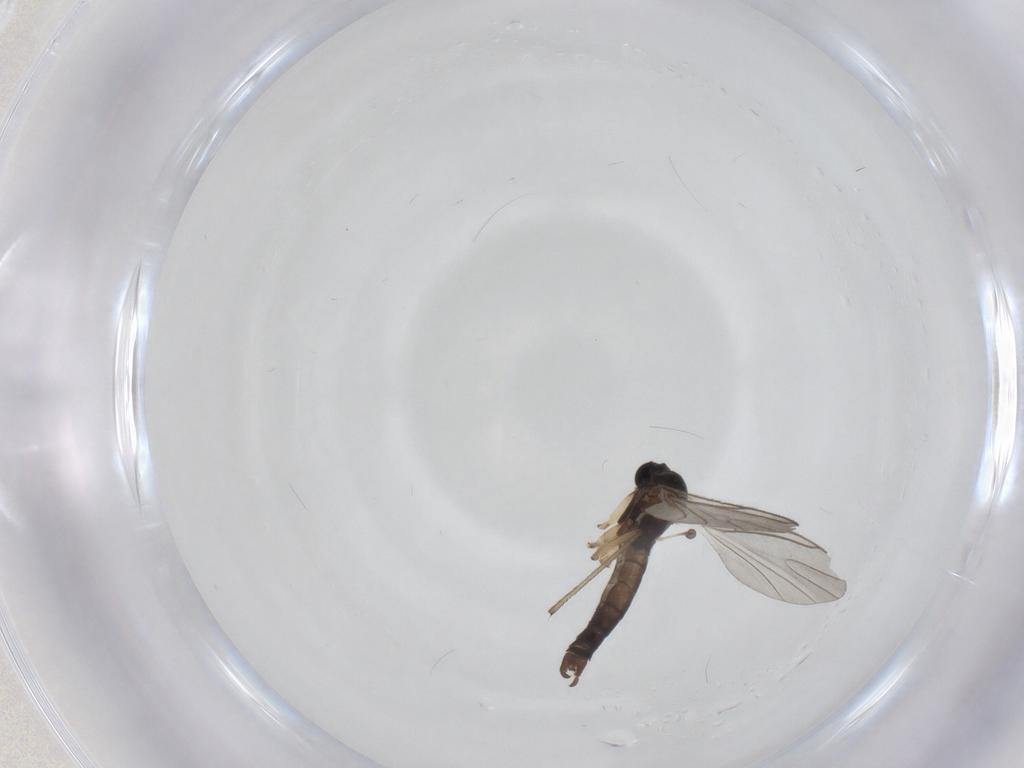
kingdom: Animalia
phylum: Arthropoda
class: Insecta
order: Diptera
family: Sciaridae
